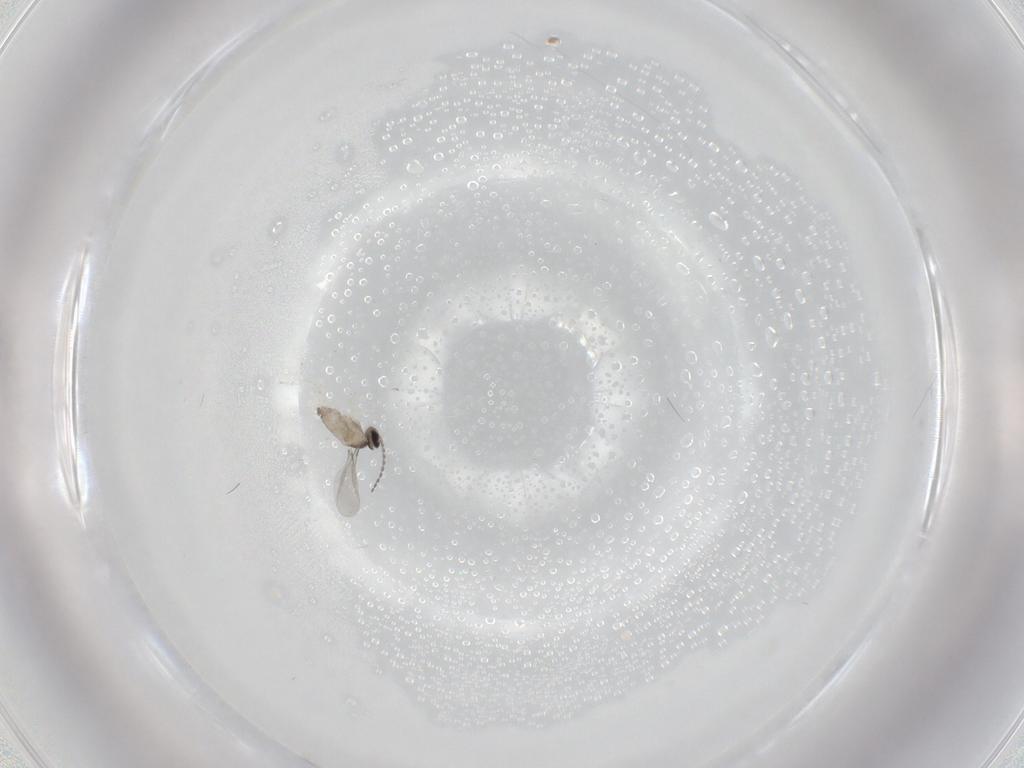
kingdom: Animalia
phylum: Arthropoda
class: Insecta
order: Diptera
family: Cecidomyiidae
